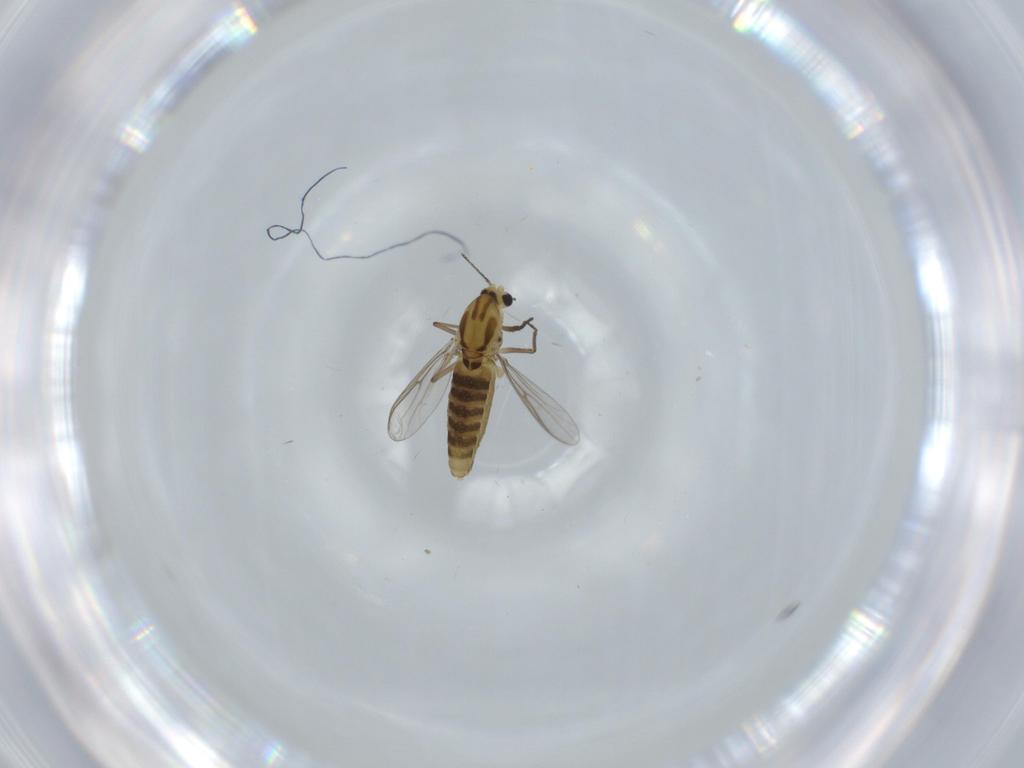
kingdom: Animalia
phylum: Arthropoda
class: Insecta
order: Diptera
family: Chironomidae
